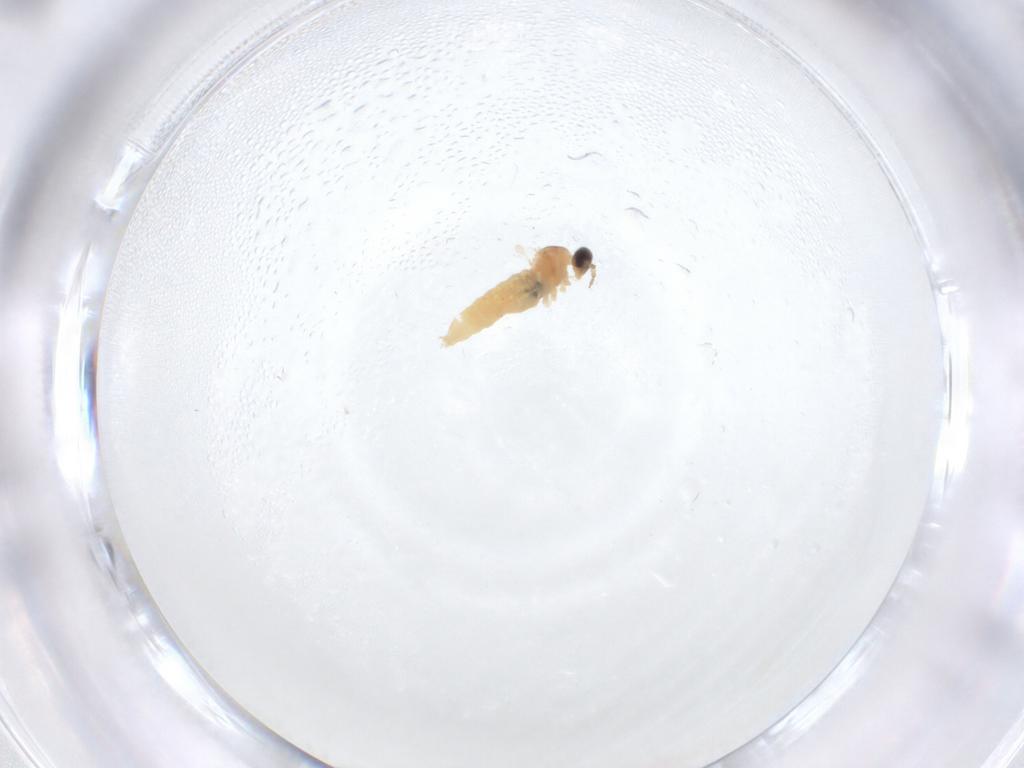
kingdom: Animalia
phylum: Arthropoda
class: Insecta
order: Diptera
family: Cecidomyiidae
